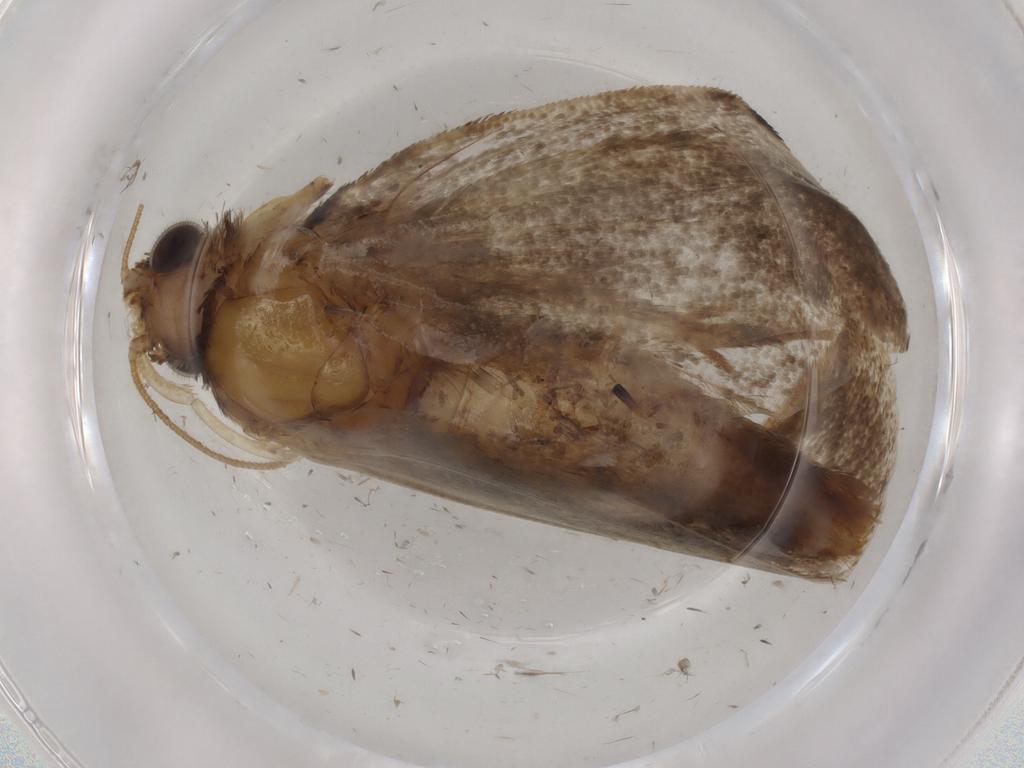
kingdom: Animalia
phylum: Arthropoda
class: Insecta
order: Lepidoptera
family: Tineidae
